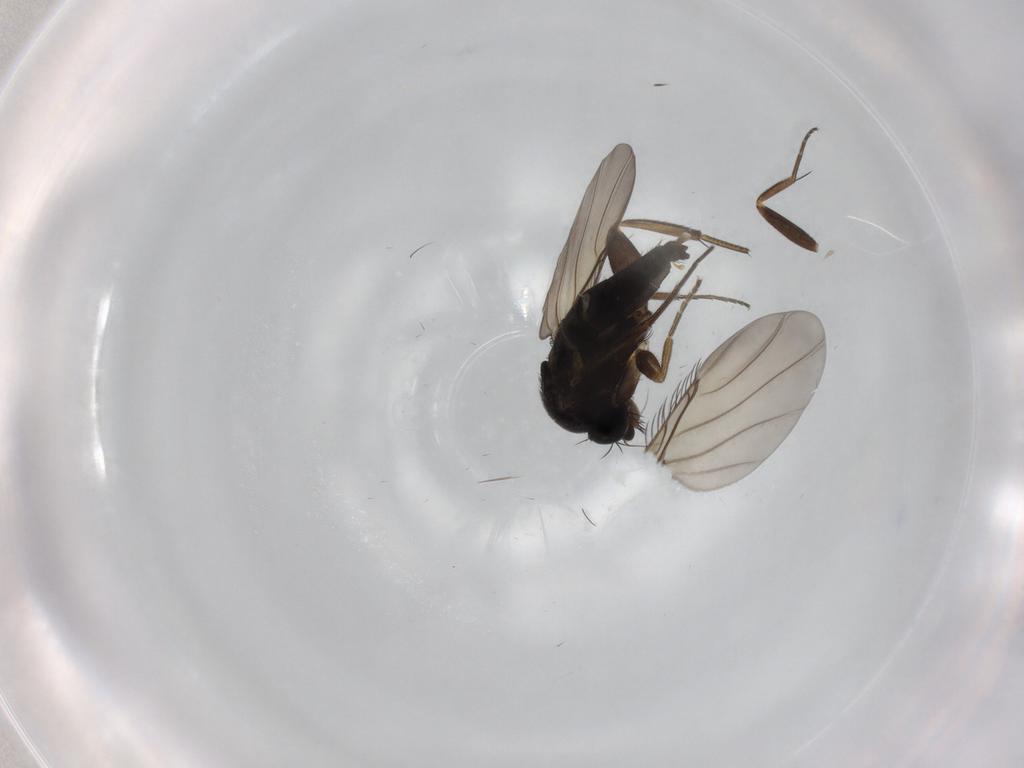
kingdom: Animalia
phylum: Arthropoda
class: Insecta
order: Diptera
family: Phoridae
